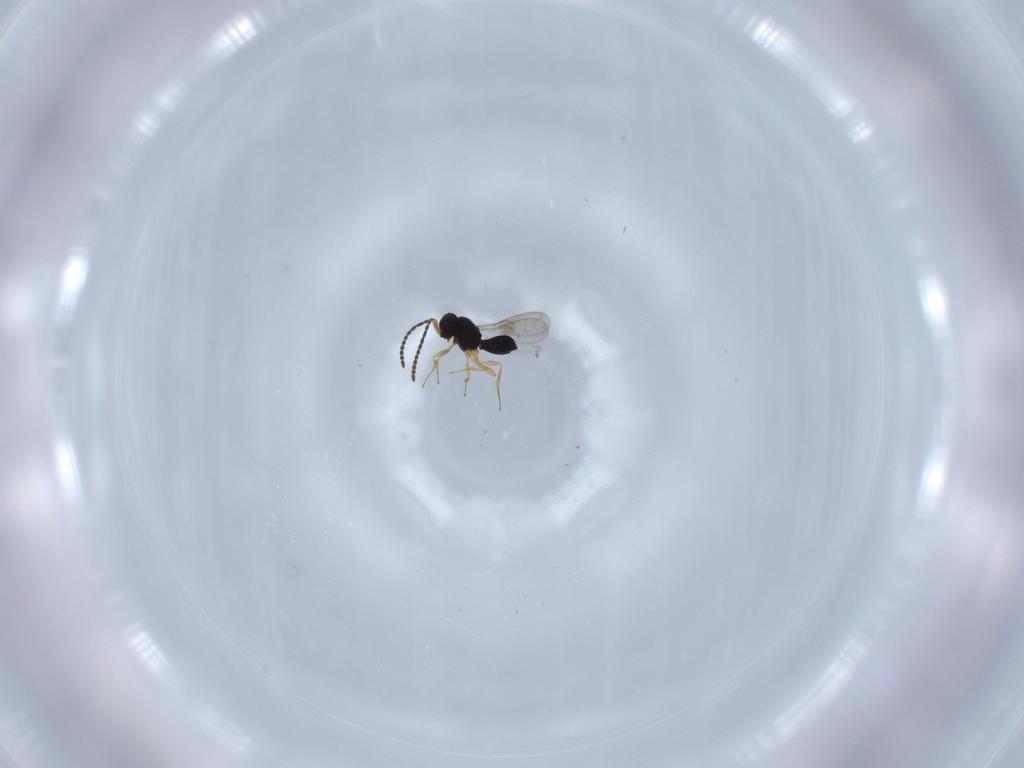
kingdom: Animalia
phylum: Arthropoda
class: Insecta
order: Hymenoptera
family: Scelionidae
